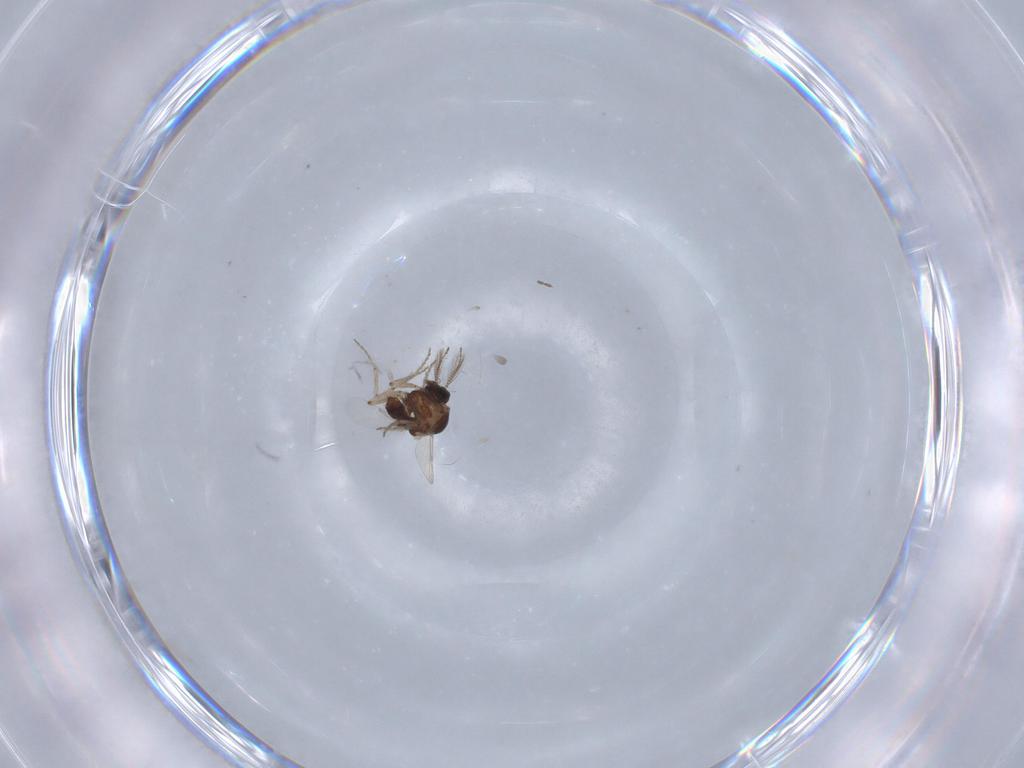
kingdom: Animalia
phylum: Arthropoda
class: Insecta
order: Diptera
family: Ceratopogonidae
